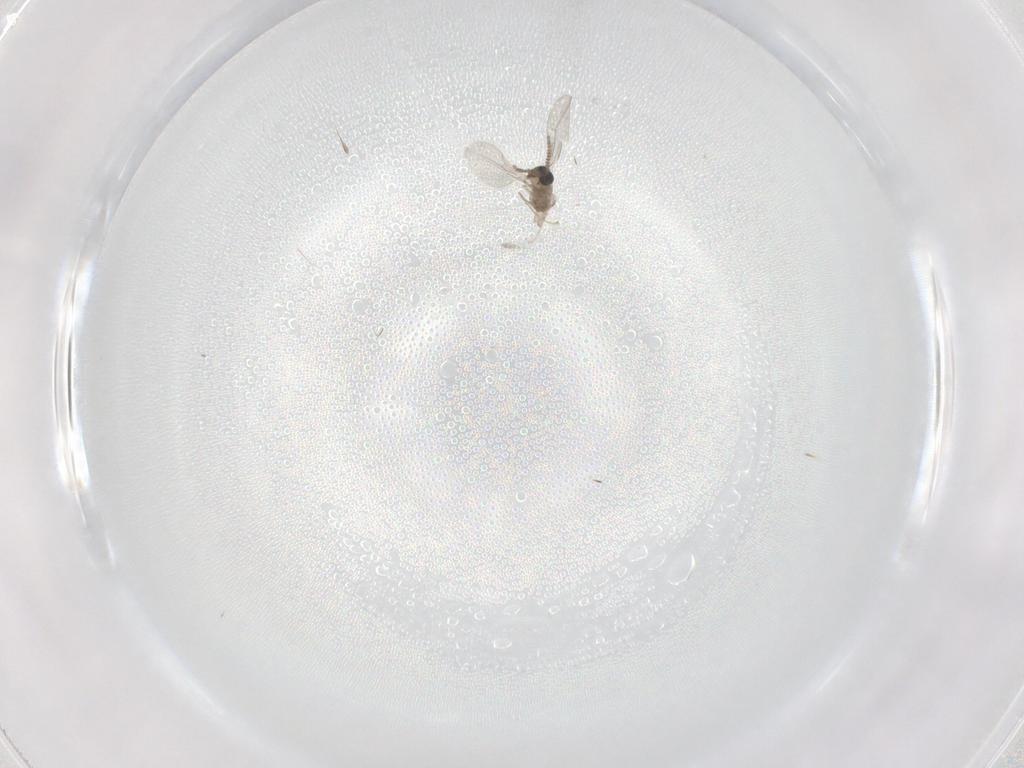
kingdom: Animalia
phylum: Arthropoda
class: Insecta
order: Diptera
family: Cecidomyiidae
